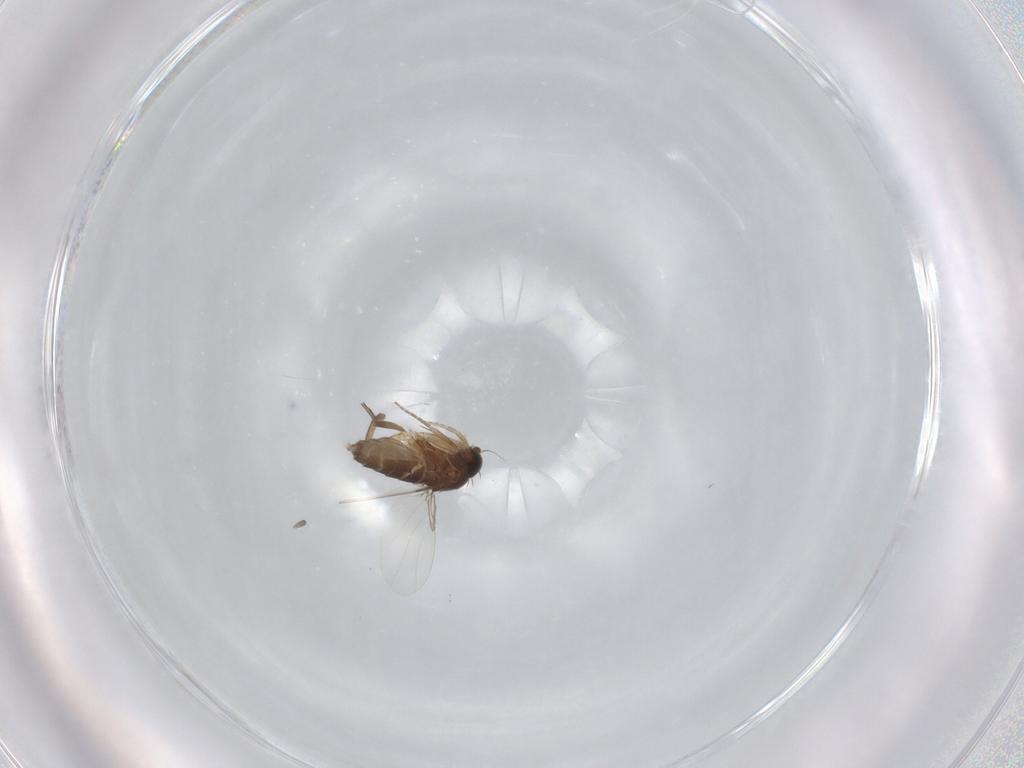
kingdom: Animalia
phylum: Arthropoda
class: Insecta
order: Diptera
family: Phoridae
